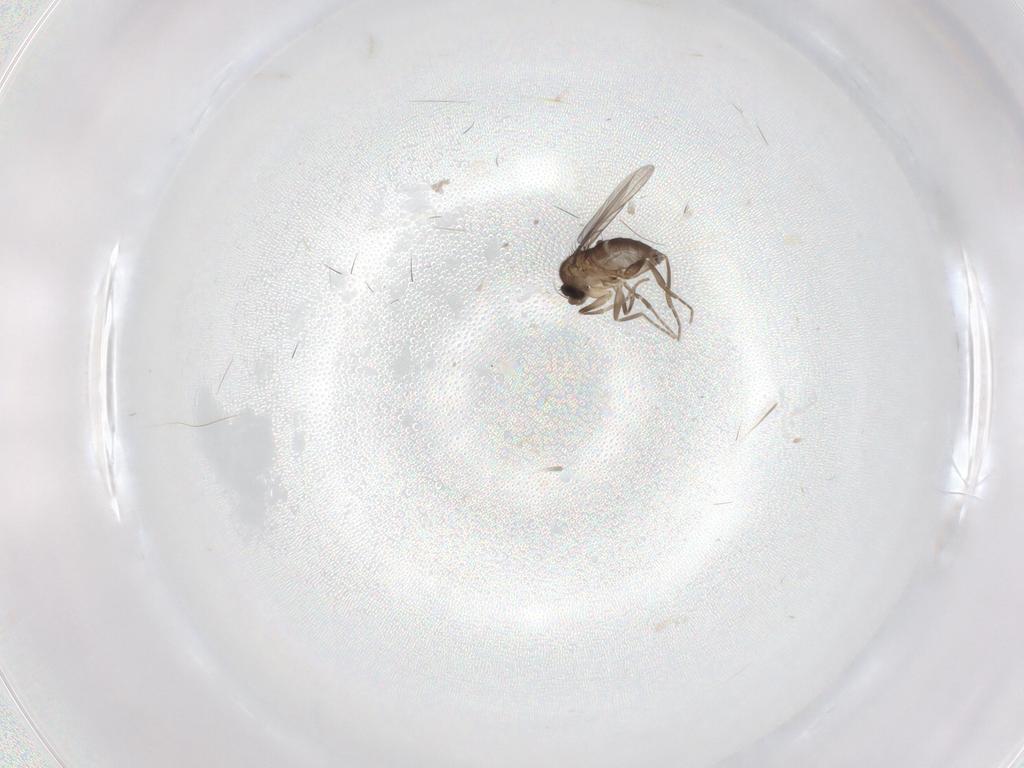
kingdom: Animalia
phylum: Arthropoda
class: Insecta
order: Diptera
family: Phoridae
